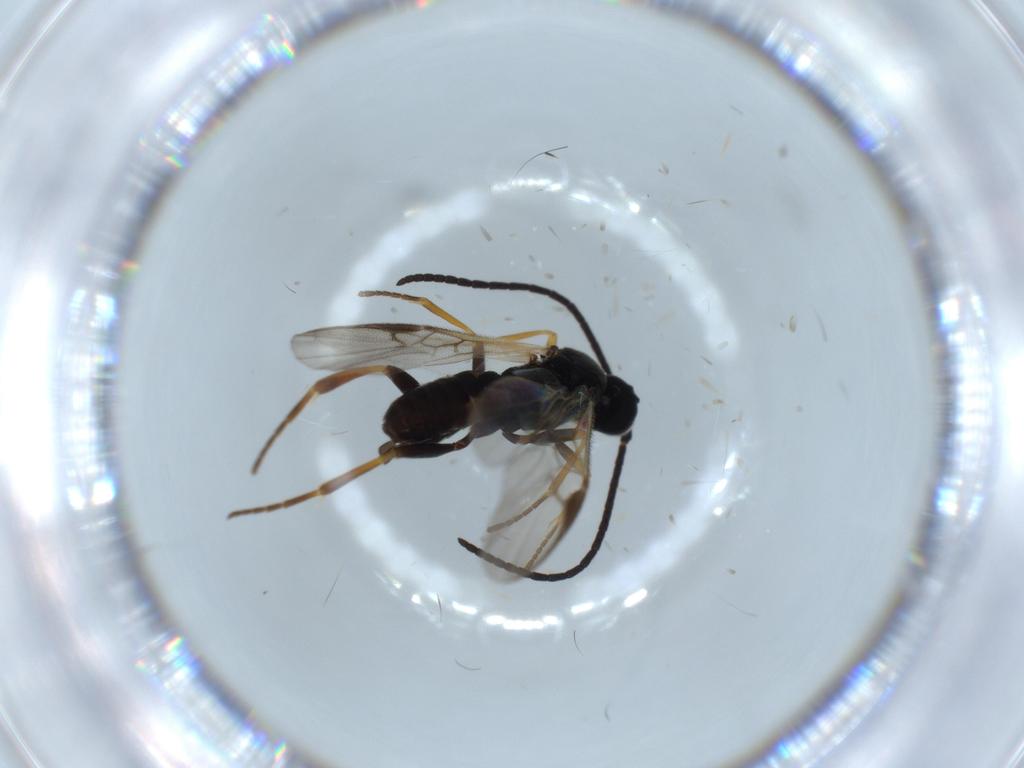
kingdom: Animalia
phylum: Arthropoda
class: Insecta
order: Hymenoptera
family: Braconidae
